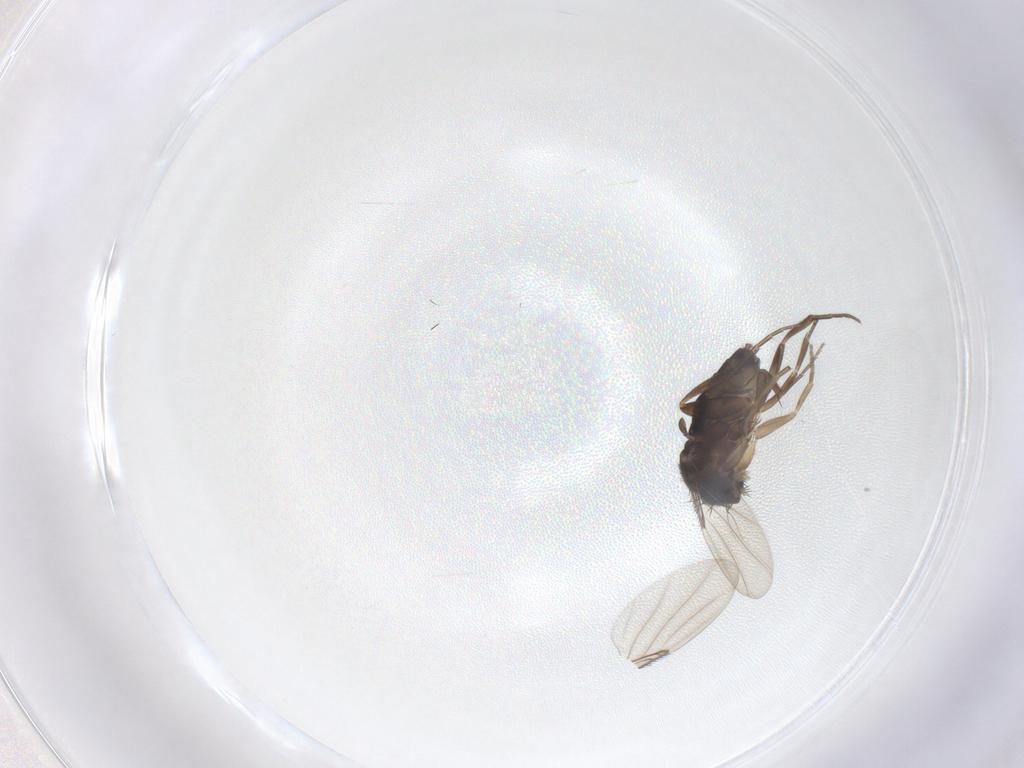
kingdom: Animalia
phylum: Arthropoda
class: Insecta
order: Diptera
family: Phoridae
